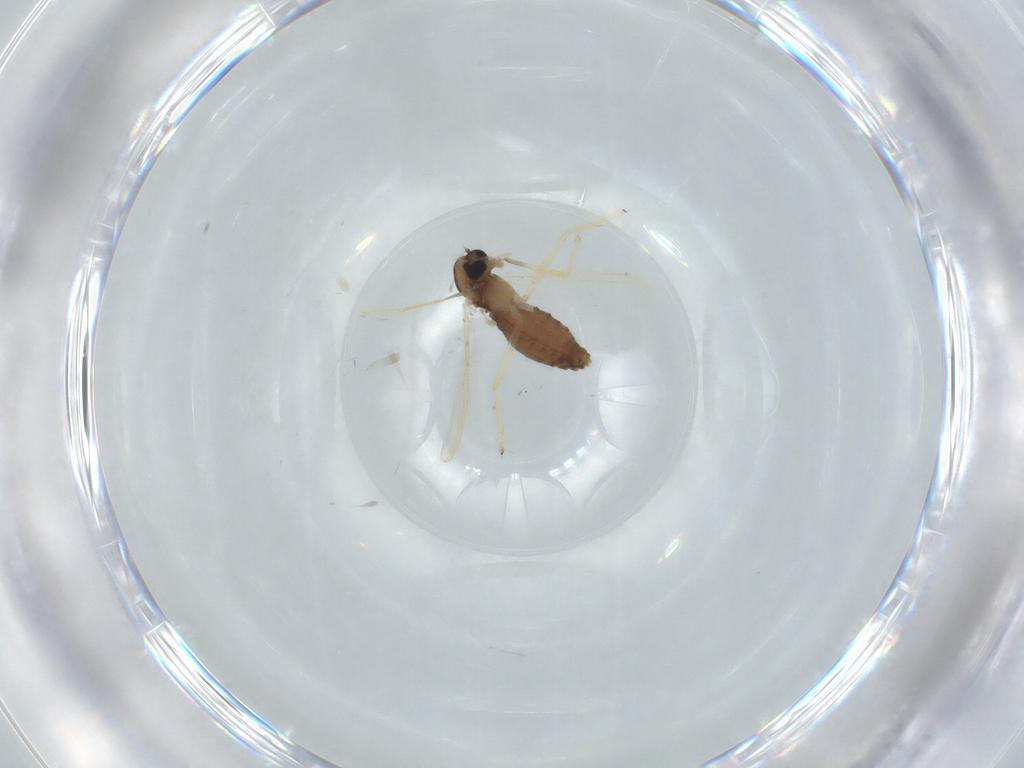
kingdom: Animalia
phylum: Arthropoda
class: Insecta
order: Diptera
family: Chironomidae
